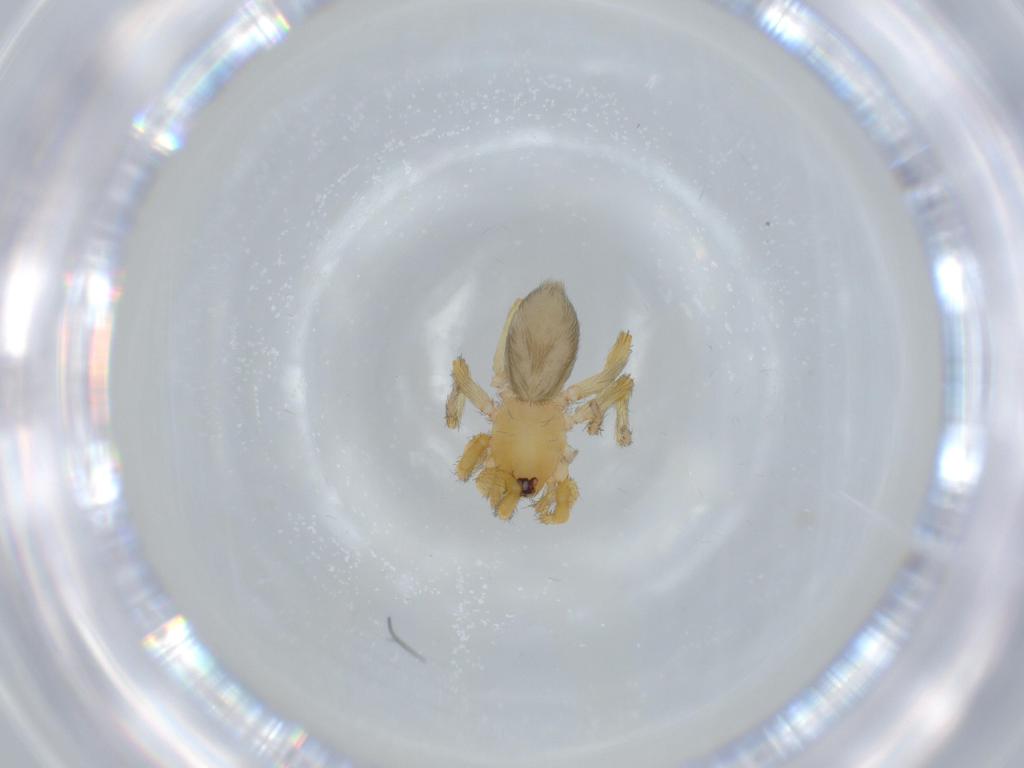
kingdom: Animalia
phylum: Arthropoda
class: Arachnida
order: Araneae
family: Oonopidae
